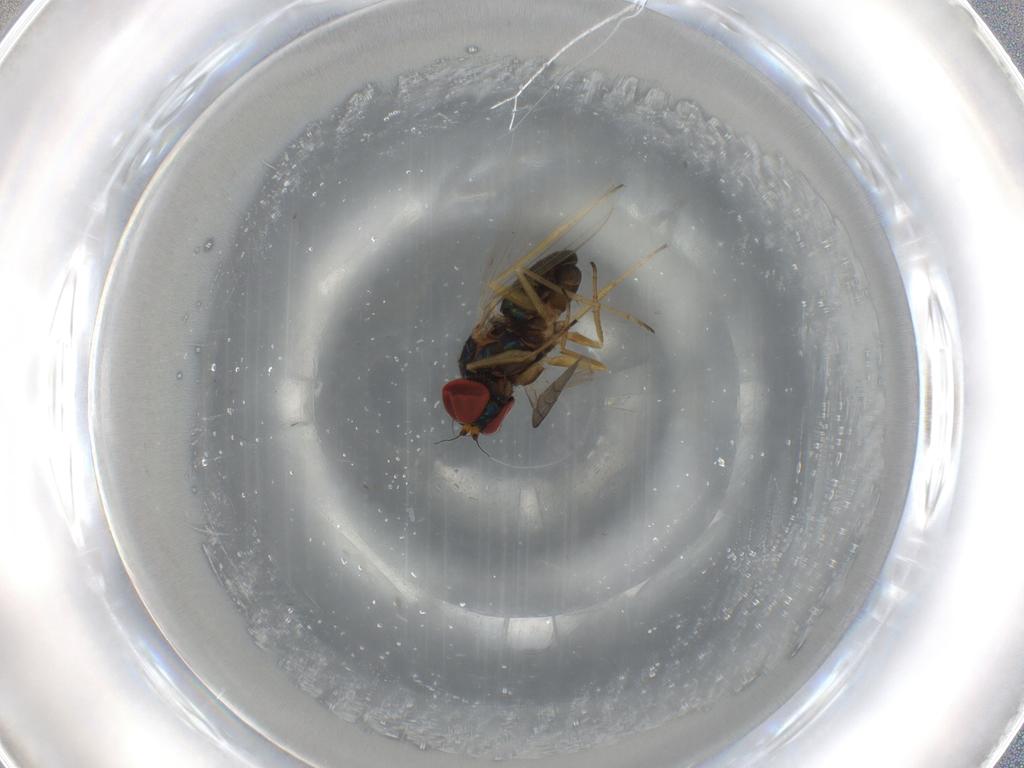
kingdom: Animalia
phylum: Arthropoda
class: Insecta
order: Diptera
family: Dolichopodidae
